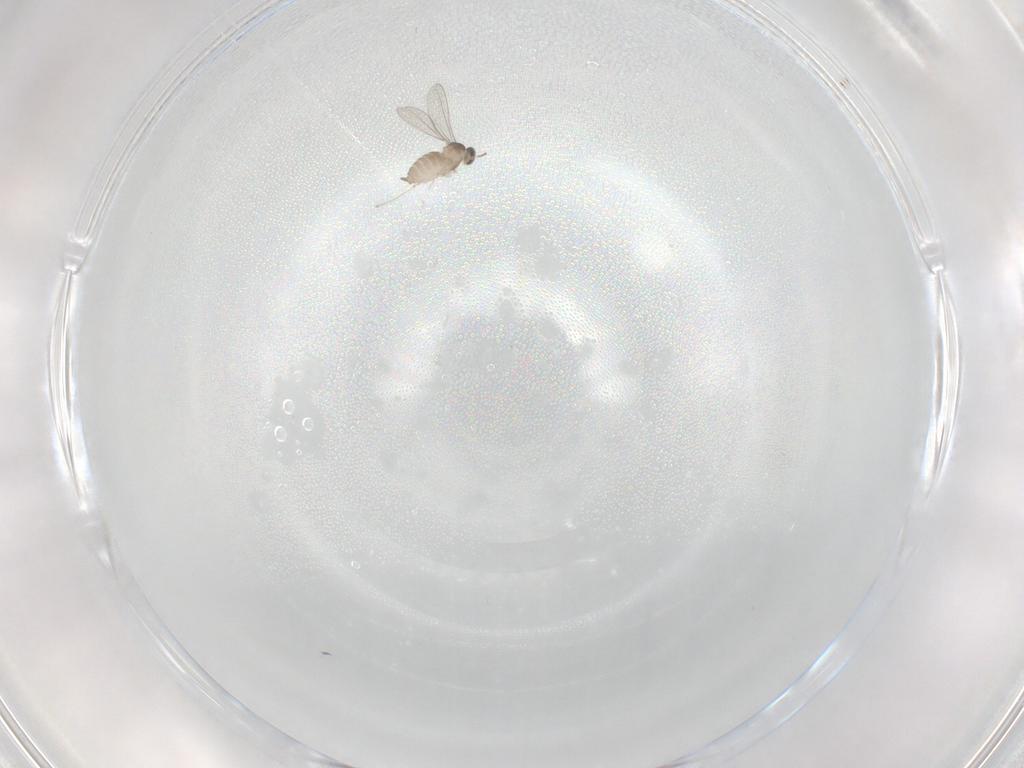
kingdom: Animalia
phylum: Arthropoda
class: Insecta
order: Diptera
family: Cecidomyiidae
